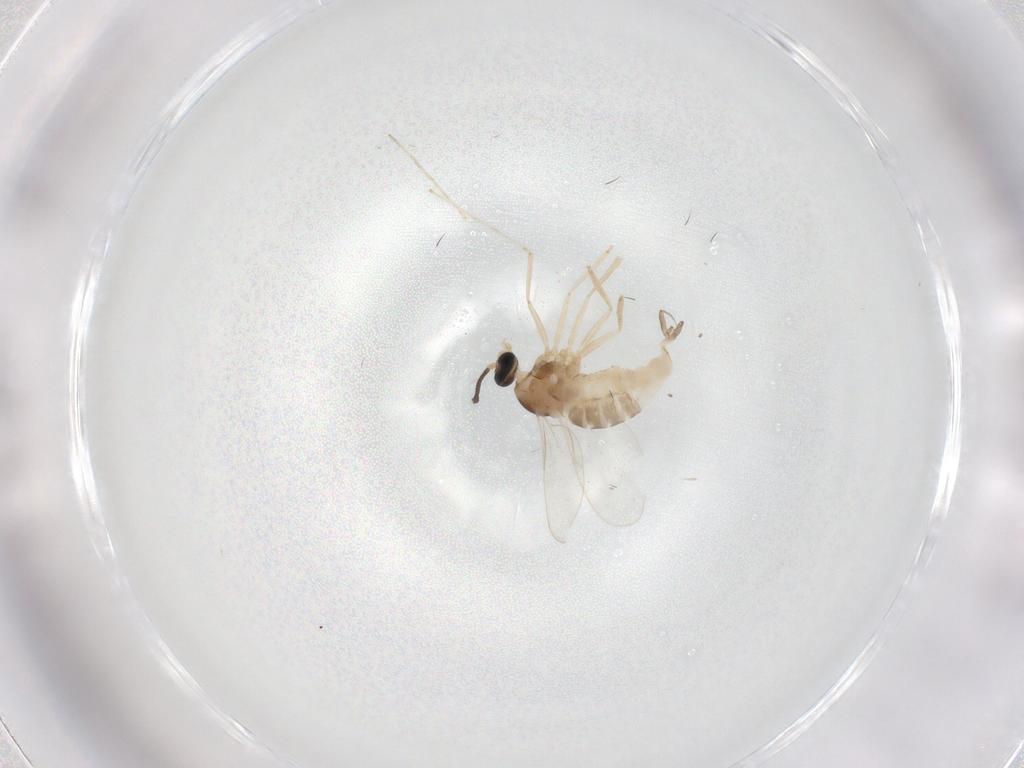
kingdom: Animalia
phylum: Arthropoda
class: Insecta
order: Diptera
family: Cecidomyiidae
